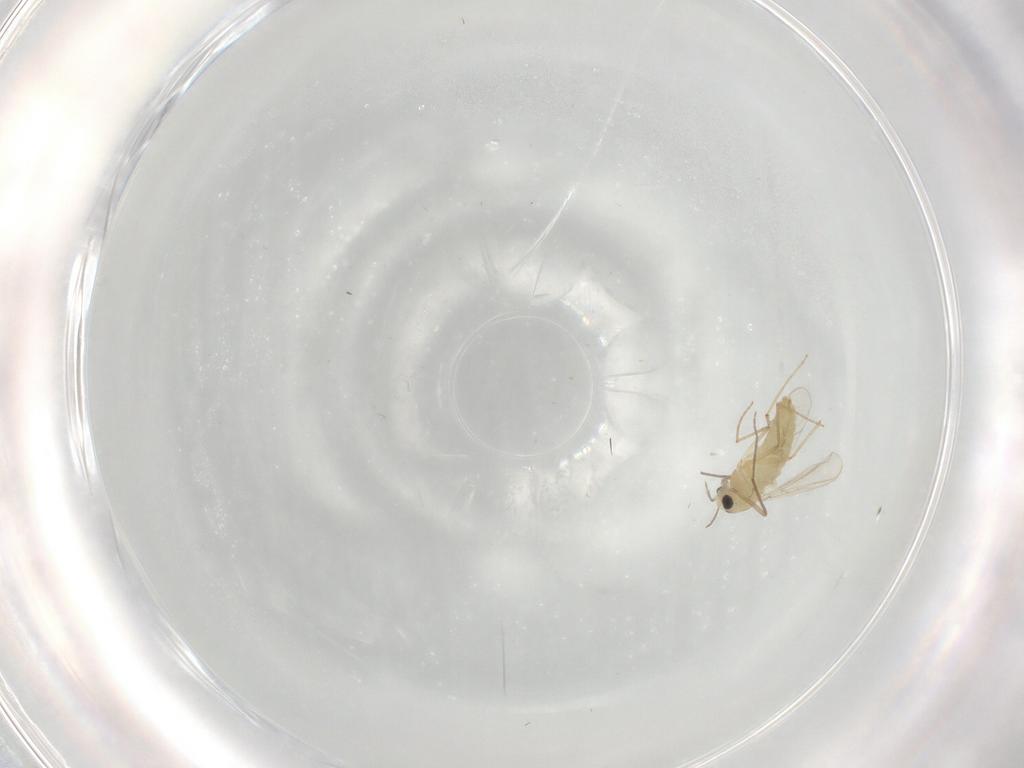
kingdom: Animalia
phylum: Arthropoda
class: Insecta
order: Diptera
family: Chironomidae
